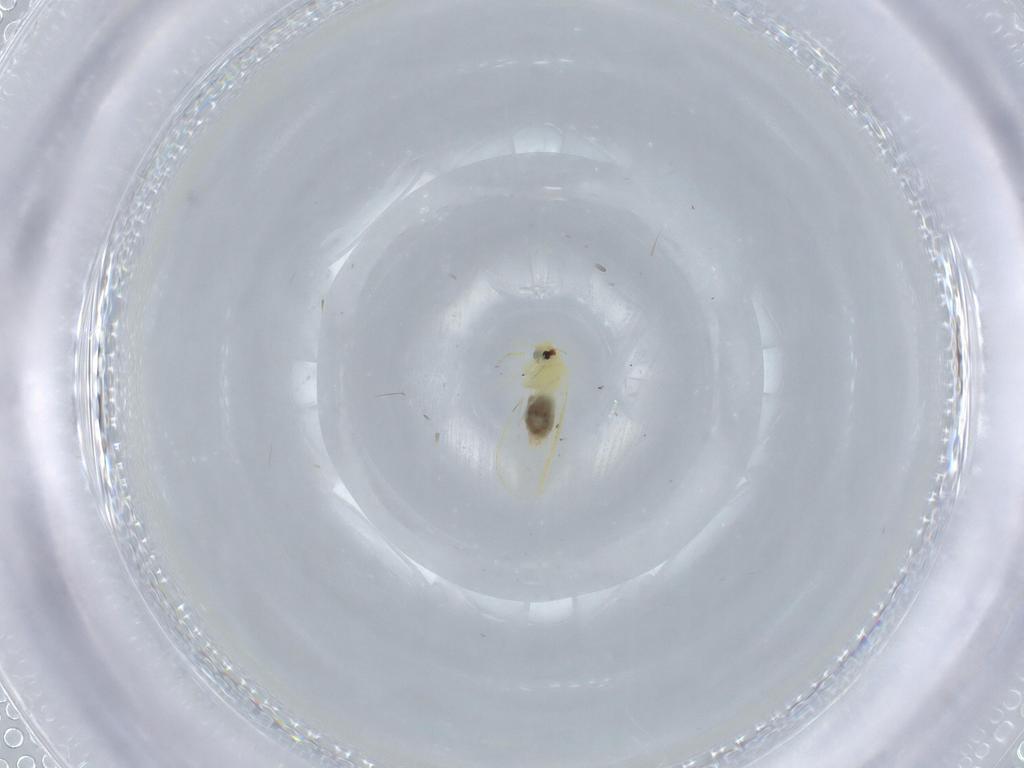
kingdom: Animalia
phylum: Arthropoda
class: Insecta
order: Hemiptera
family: Aleyrodidae
